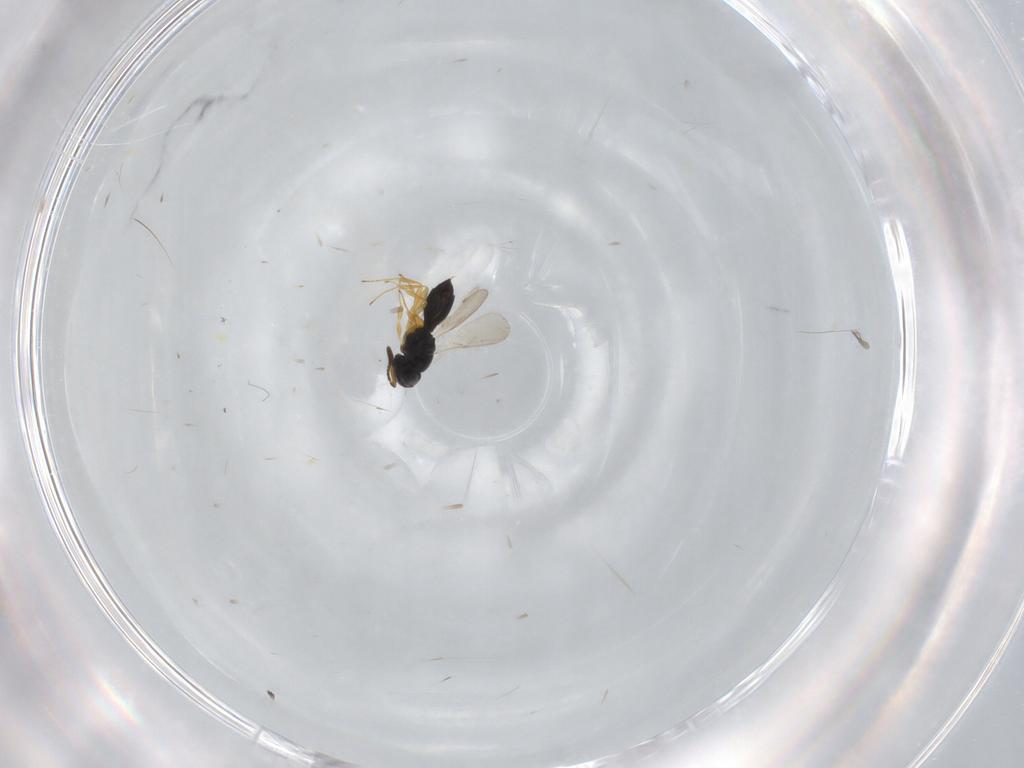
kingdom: Animalia
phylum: Arthropoda
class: Insecta
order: Hymenoptera
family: Scelionidae
